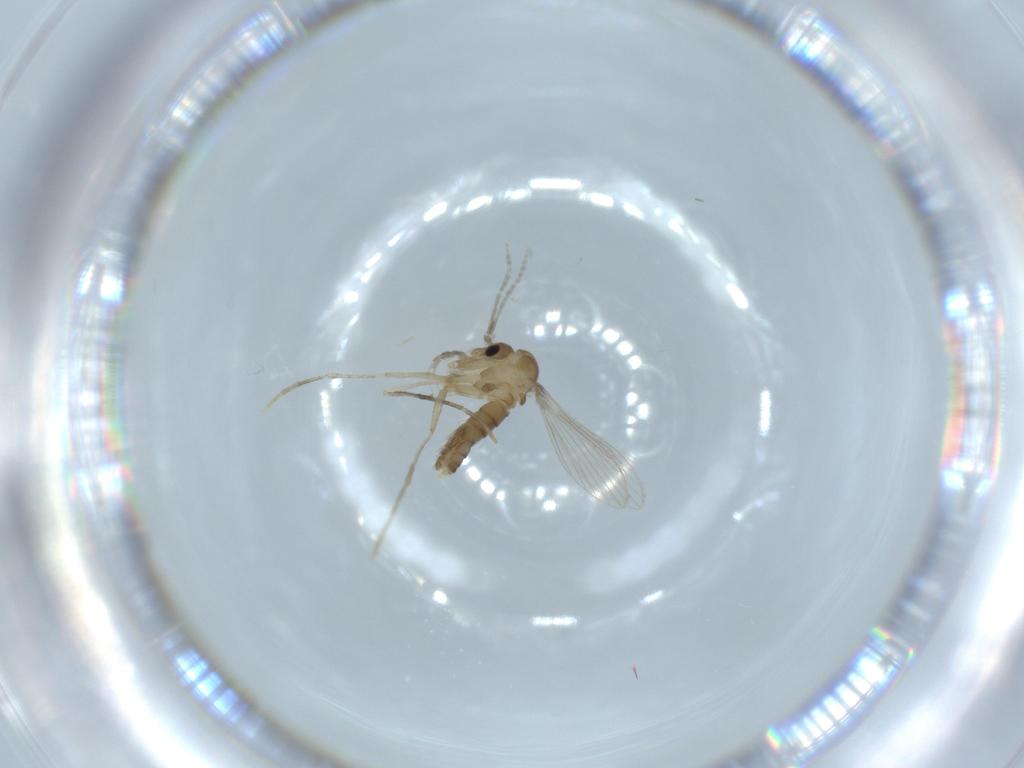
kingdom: Animalia
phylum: Arthropoda
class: Insecta
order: Diptera
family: Psychodidae
